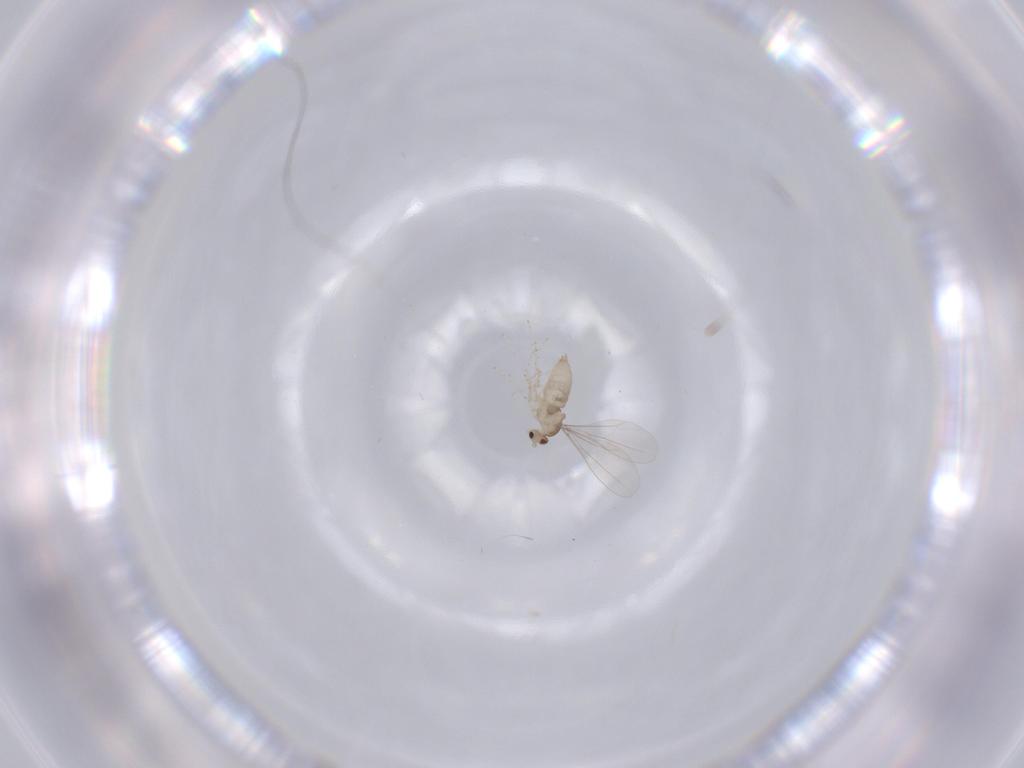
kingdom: Animalia
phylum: Arthropoda
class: Insecta
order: Diptera
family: Cecidomyiidae
